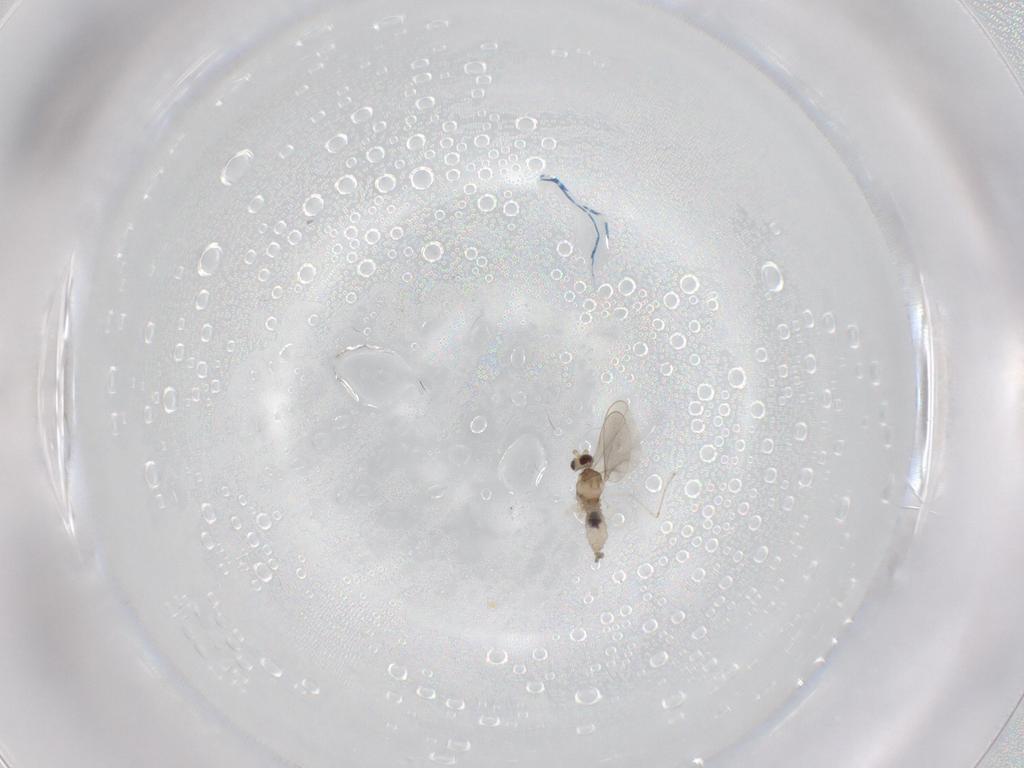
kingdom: Animalia
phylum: Arthropoda
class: Insecta
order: Diptera
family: Cecidomyiidae
